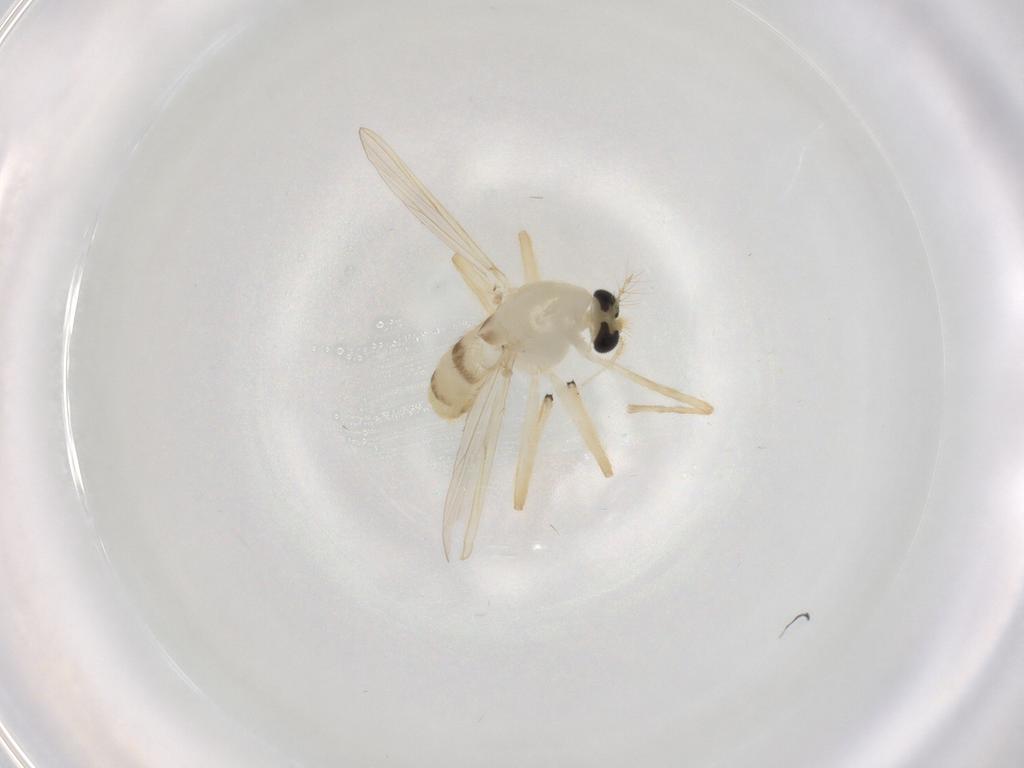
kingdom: Animalia
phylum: Arthropoda
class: Insecta
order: Diptera
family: Chironomidae
